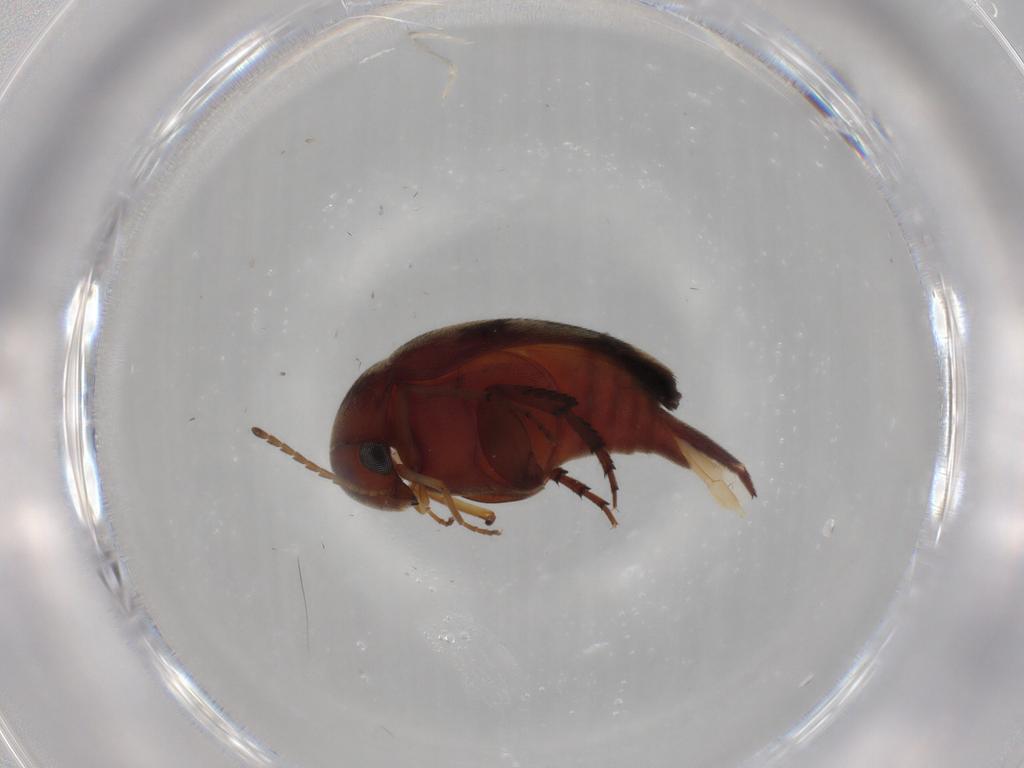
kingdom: Animalia
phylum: Arthropoda
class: Insecta
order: Coleoptera
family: Mordellidae
